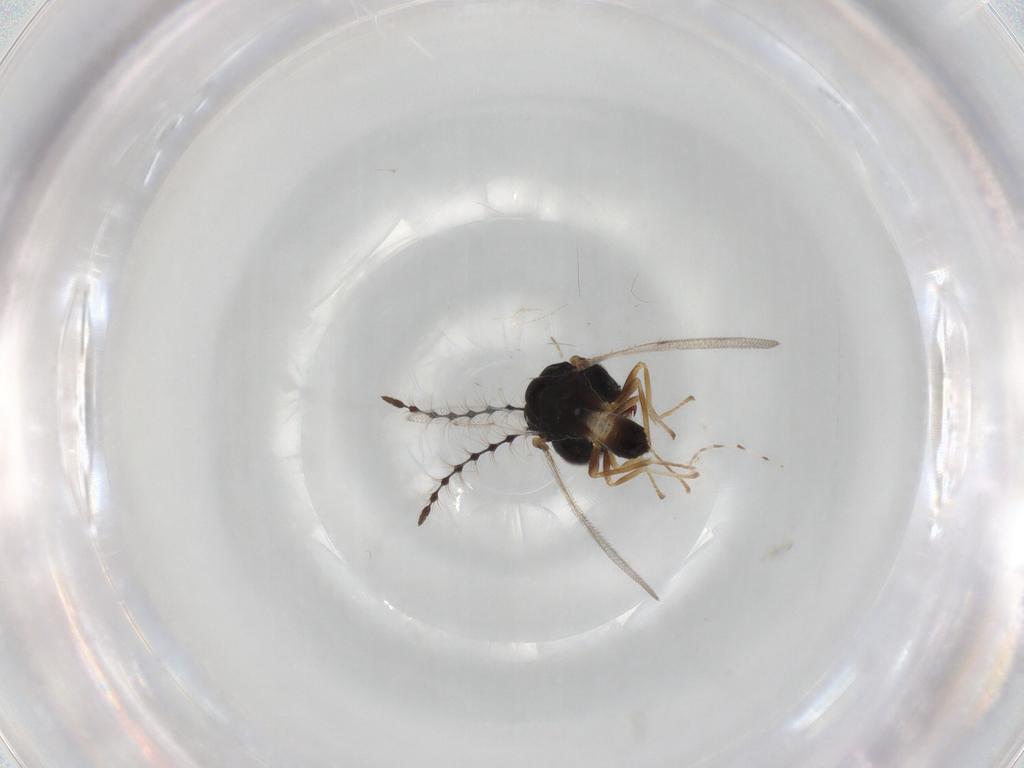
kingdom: Animalia
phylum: Arthropoda
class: Insecta
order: Hymenoptera
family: Pteromalidae
